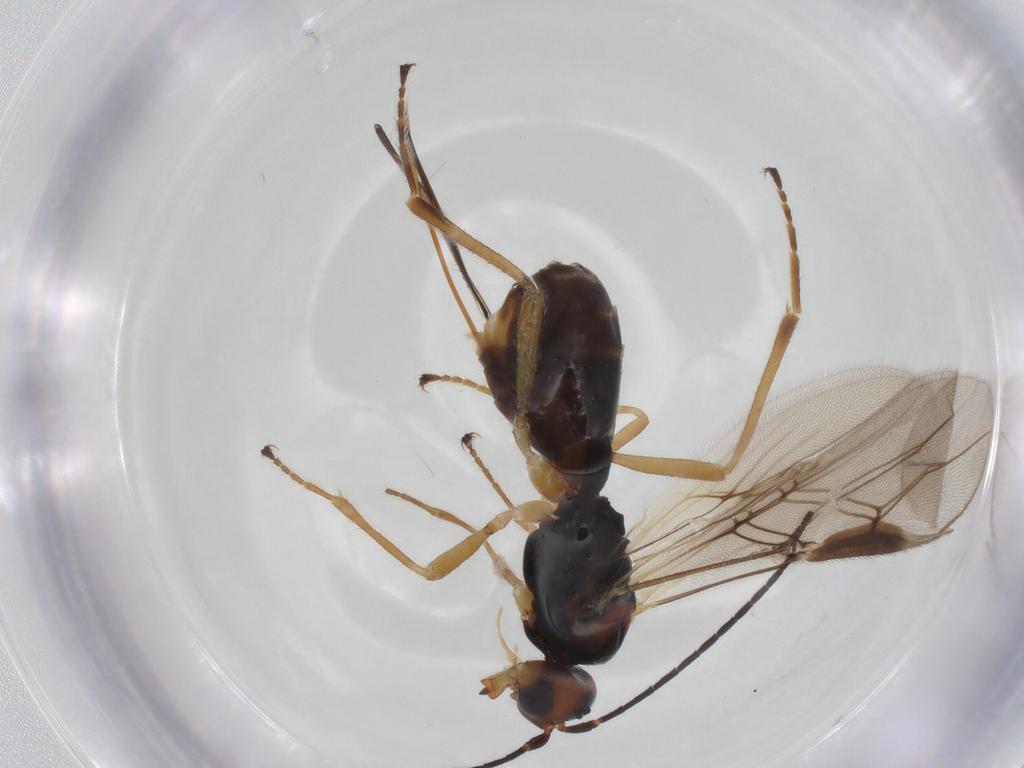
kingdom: Animalia
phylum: Arthropoda
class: Insecta
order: Hymenoptera
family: Braconidae
